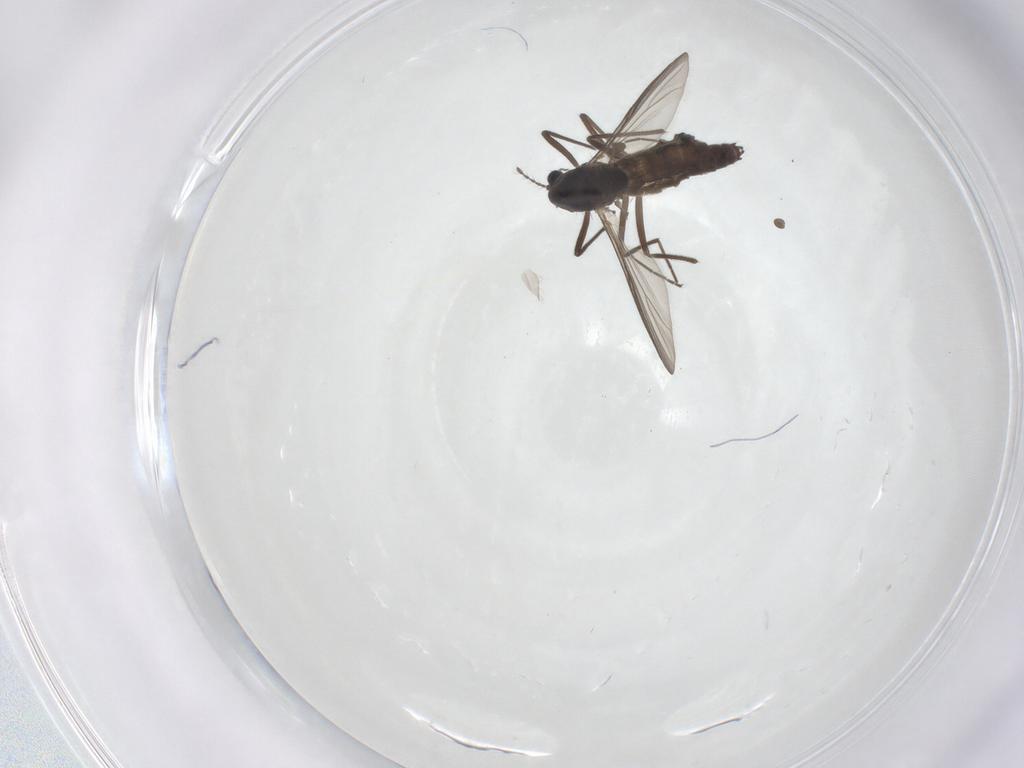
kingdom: Animalia
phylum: Arthropoda
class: Insecta
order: Diptera
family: Chironomidae
